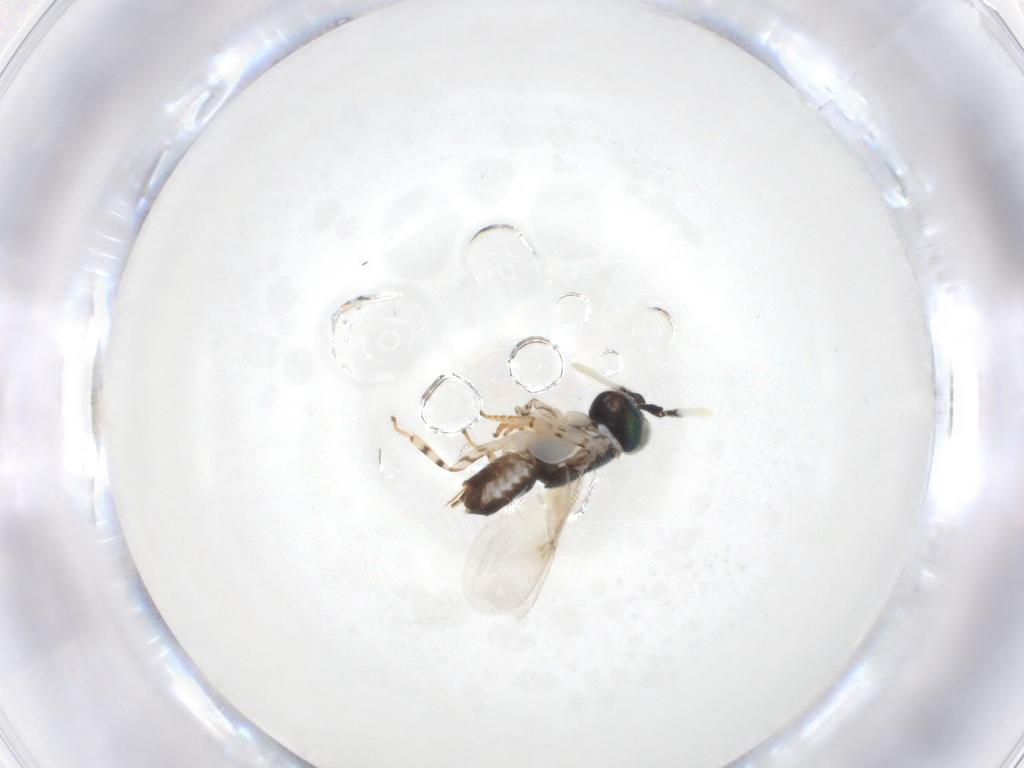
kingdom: Animalia
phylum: Arthropoda
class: Insecta
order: Hymenoptera
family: Encyrtidae
